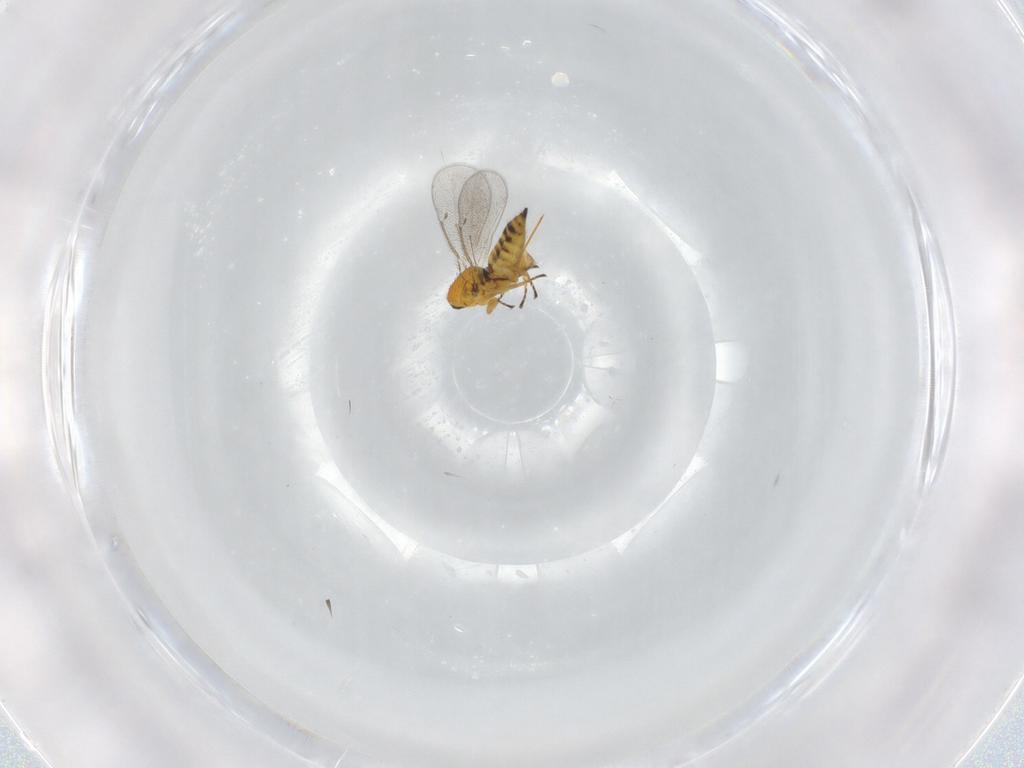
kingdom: Animalia
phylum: Arthropoda
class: Insecta
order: Hymenoptera
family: Eulophidae
